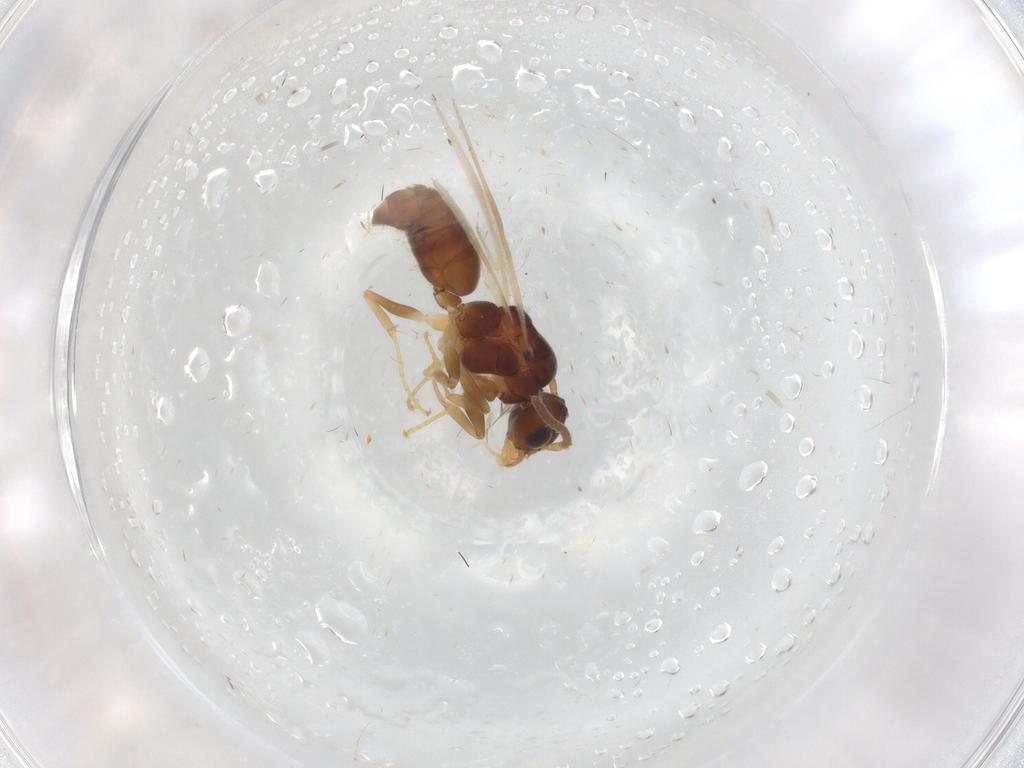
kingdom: Animalia
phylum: Arthropoda
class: Insecta
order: Hymenoptera
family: Formicidae
